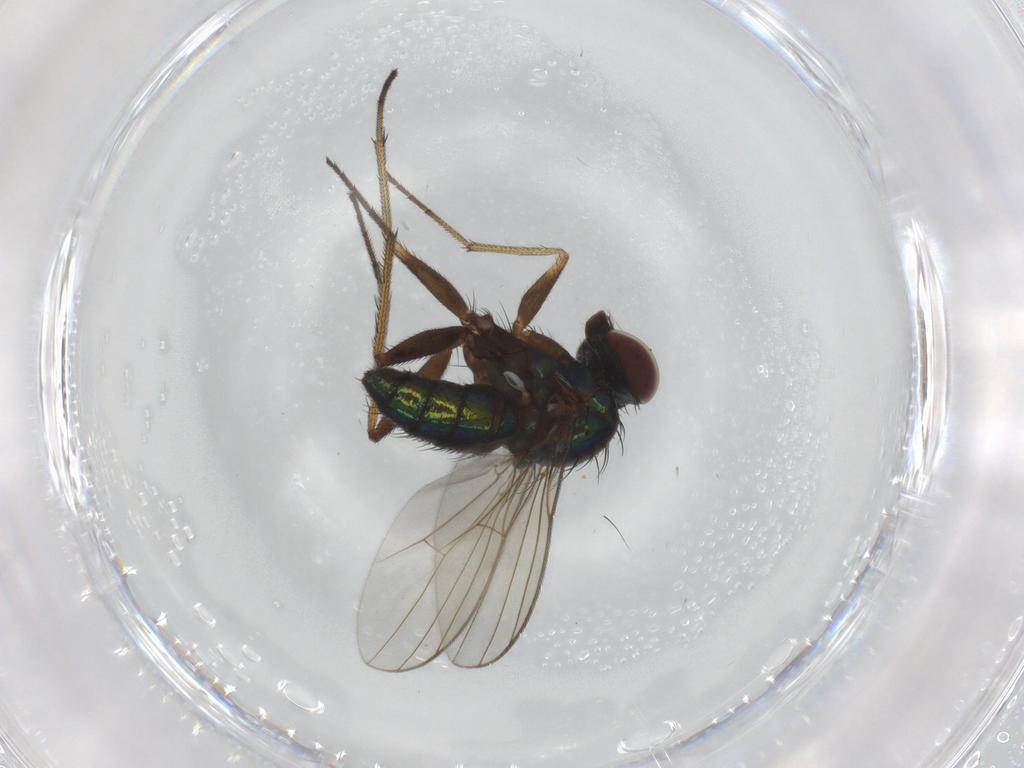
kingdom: Animalia
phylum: Arthropoda
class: Insecta
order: Diptera
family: Dolichopodidae
